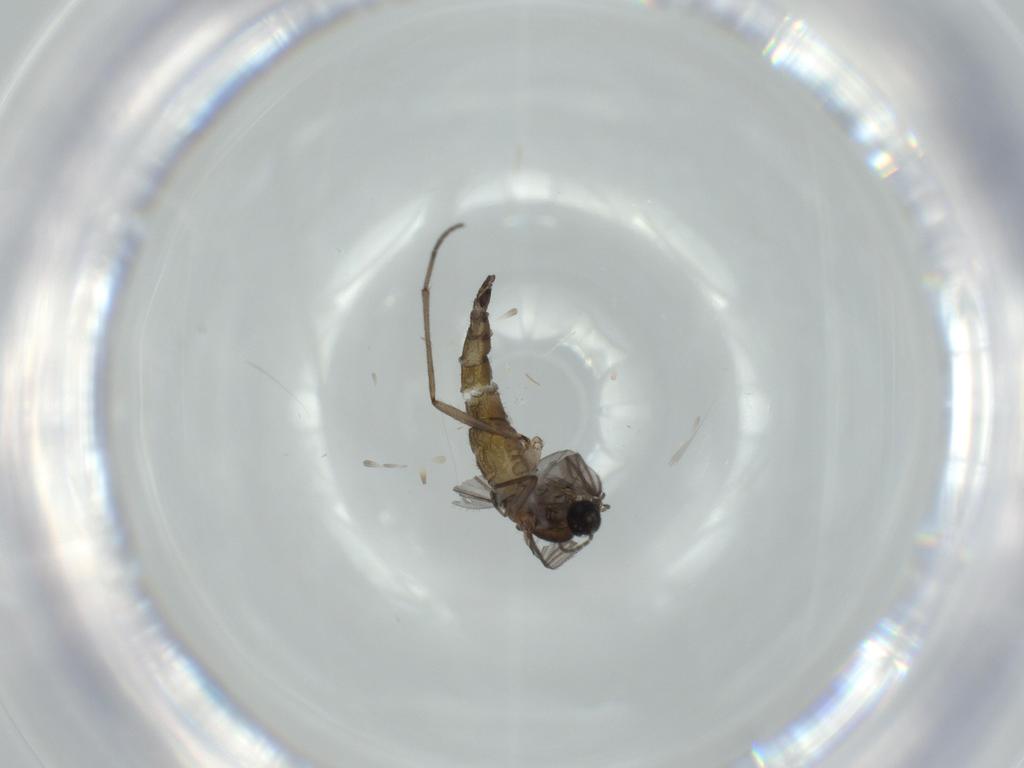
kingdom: Animalia
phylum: Arthropoda
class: Insecta
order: Diptera
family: Sciaridae
